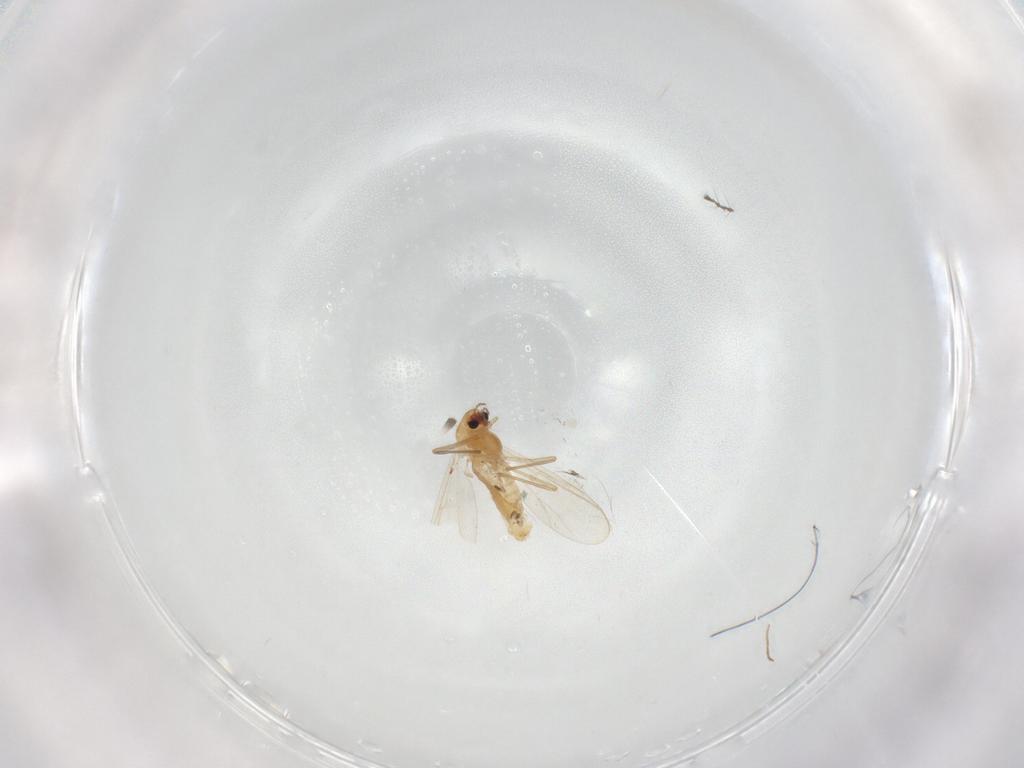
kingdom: Animalia
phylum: Arthropoda
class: Insecta
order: Diptera
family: Chironomidae
